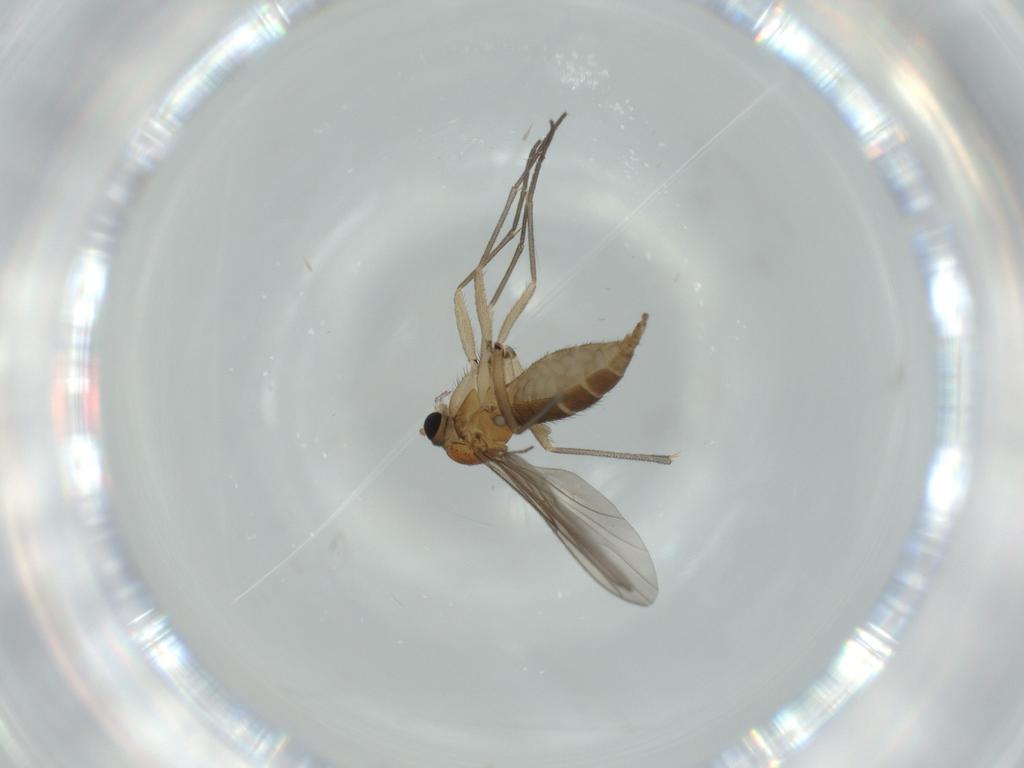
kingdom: Animalia
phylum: Arthropoda
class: Insecta
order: Diptera
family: Sciaridae
